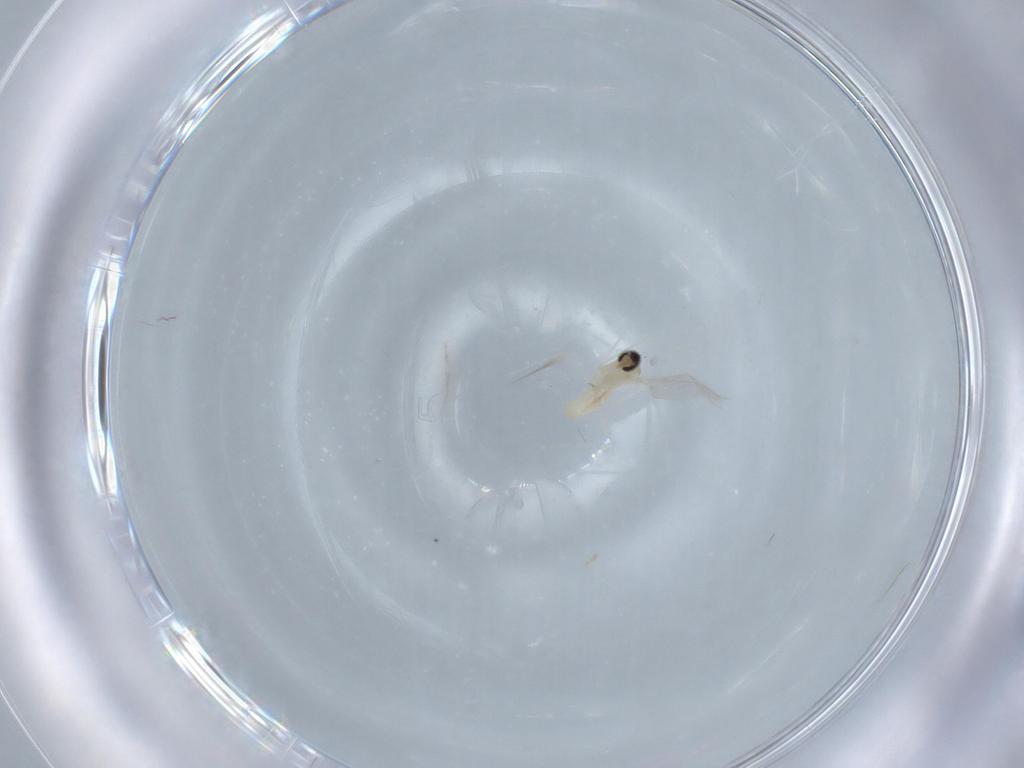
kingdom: Animalia
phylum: Arthropoda
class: Insecta
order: Diptera
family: Cecidomyiidae
